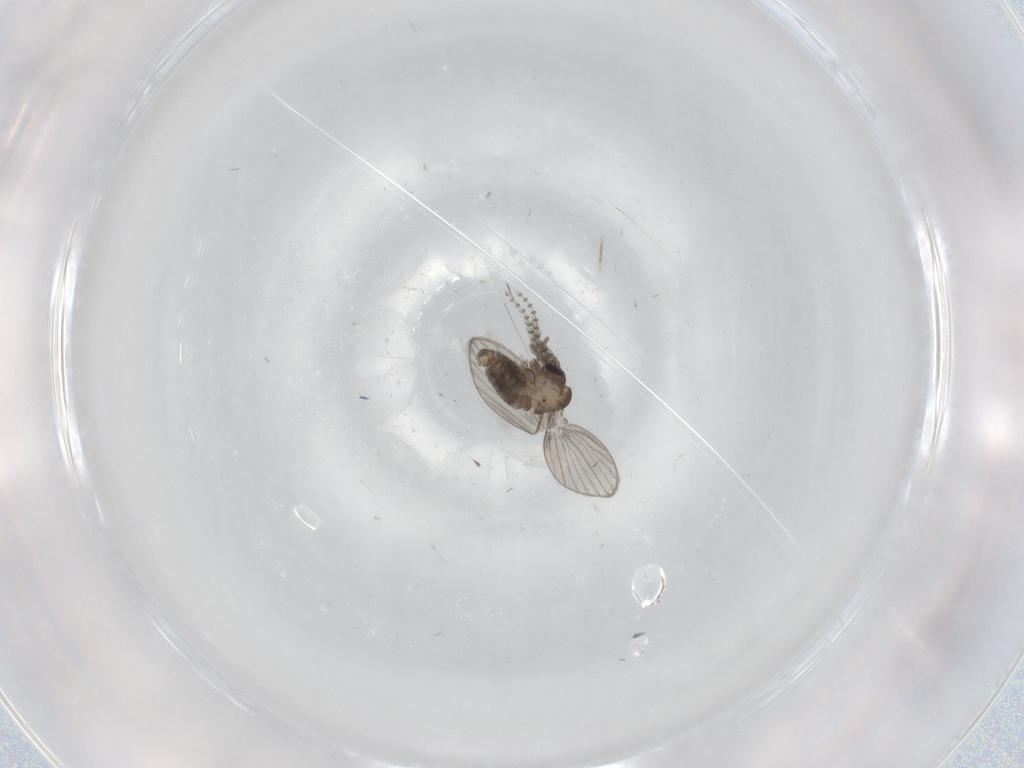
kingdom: Animalia
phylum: Arthropoda
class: Insecta
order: Diptera
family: Psychodidae
